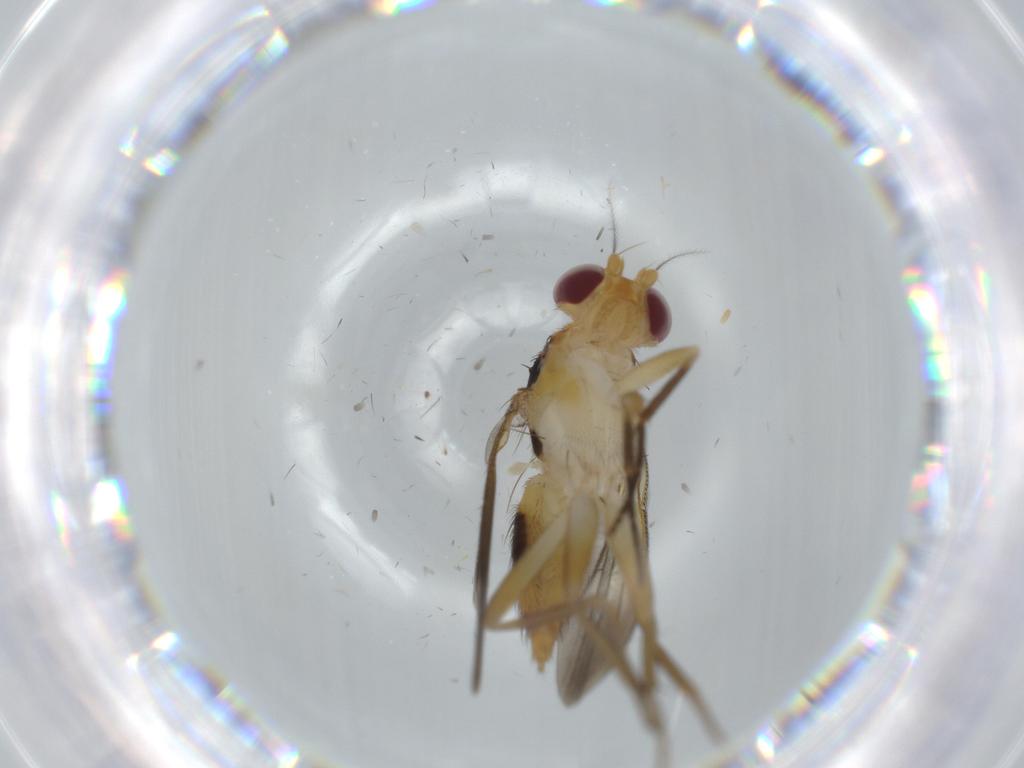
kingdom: Animalia
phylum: Arthropoda
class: Insecta
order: Diptera
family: Clusiidae
